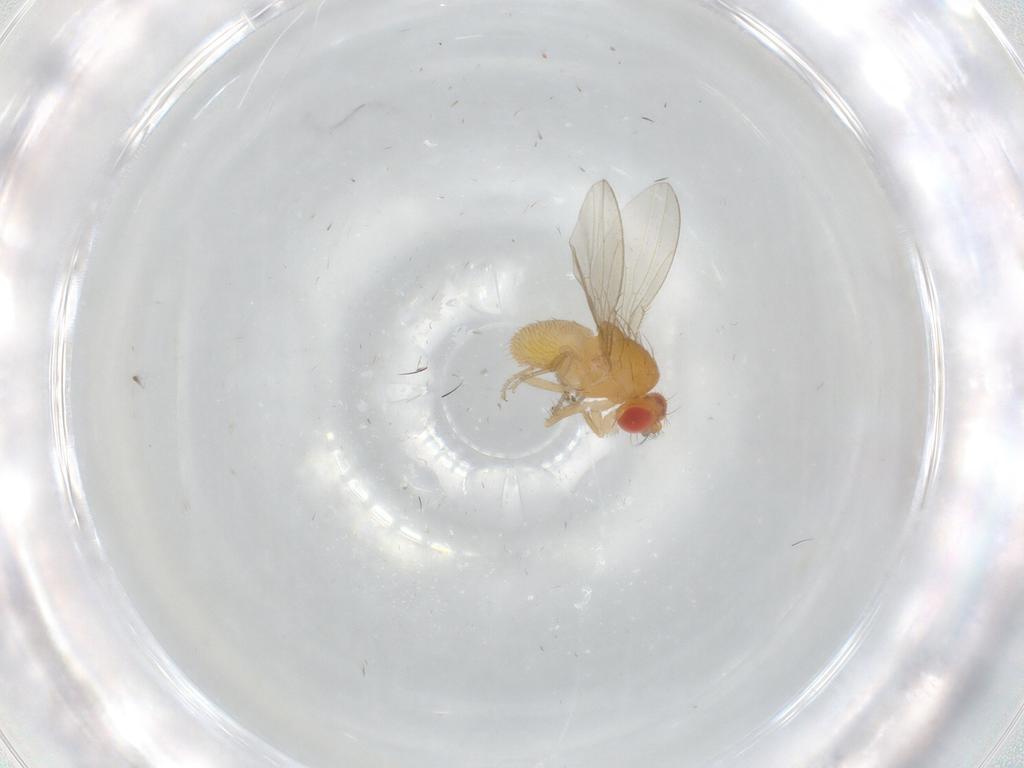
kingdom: Animalia
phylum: Arthropoda
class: Insecta
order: Diptera
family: Drosophilidae
